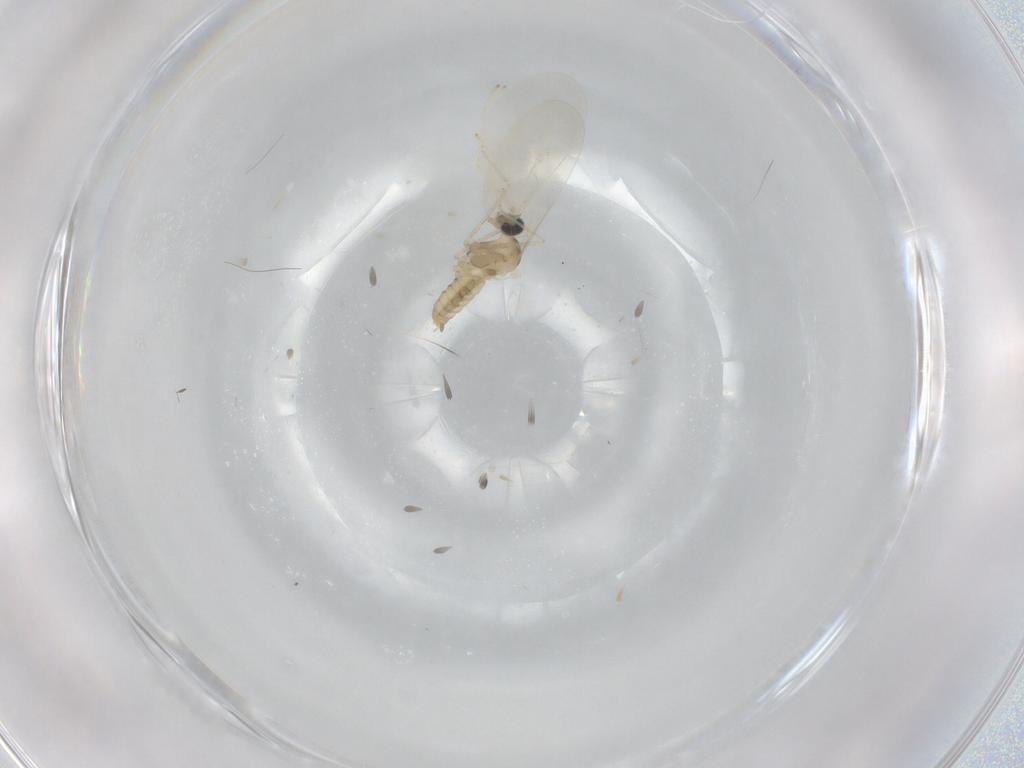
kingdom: Animalia
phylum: Arthropoda
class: Insecta
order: Diptera
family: Cecidomyiidae
